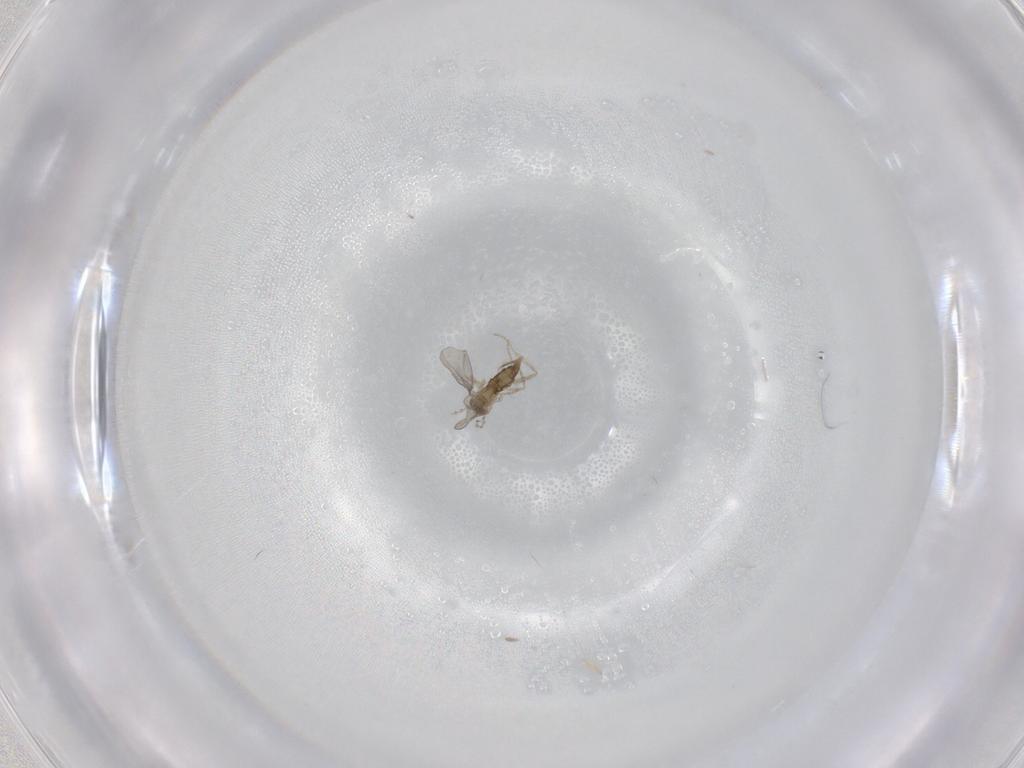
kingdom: Animalia
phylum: Arthropoda
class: Insecta
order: Diptera
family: Cecidomyiidae
